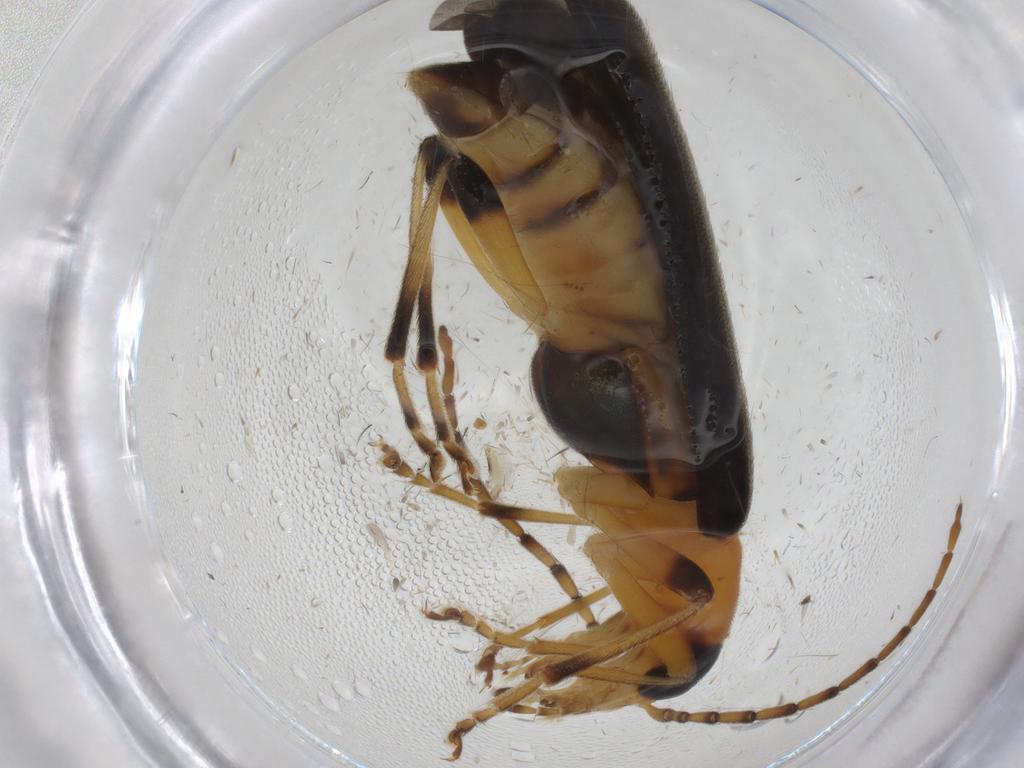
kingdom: Animalia
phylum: Arthropoda
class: Insecta
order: Coleoptera
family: Oedemeridae
